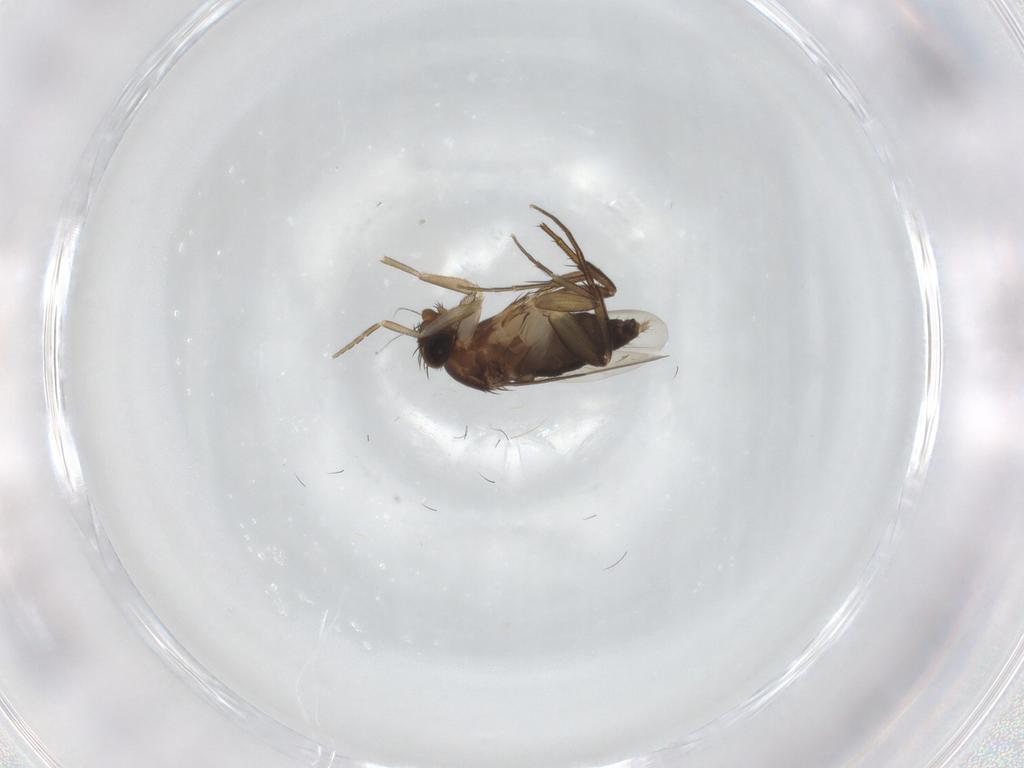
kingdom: Animalia
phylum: Arthropoda
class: Insecta
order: Diptera
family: Phoridae
